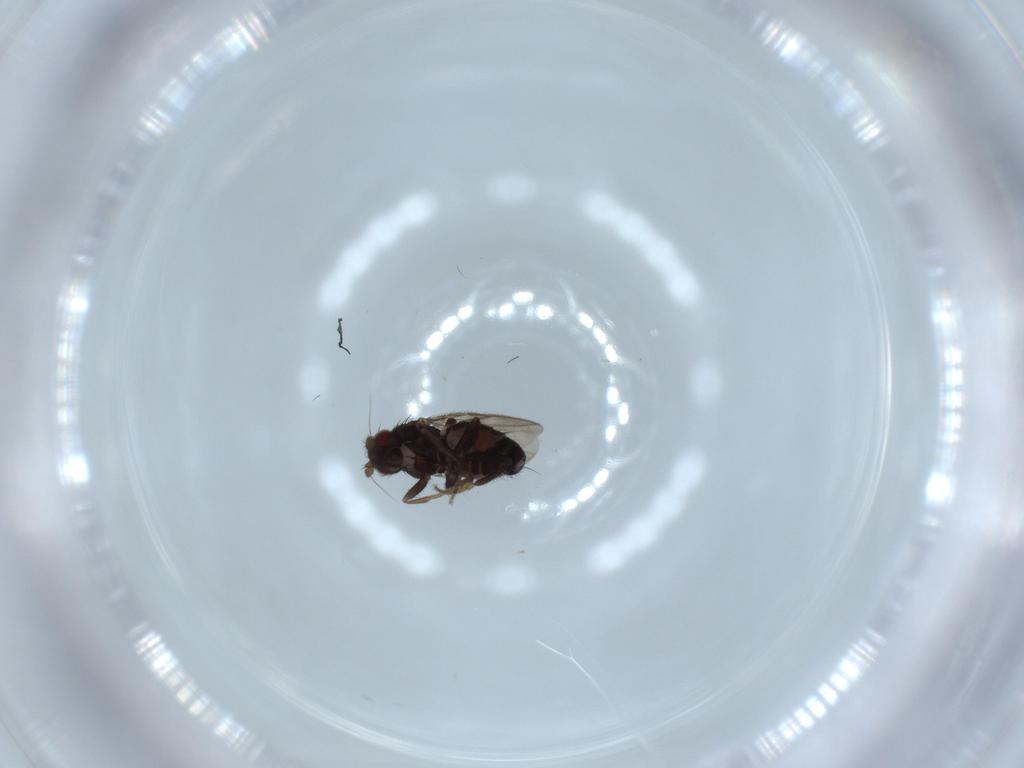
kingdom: Animalia
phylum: Arthropoda
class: Insecta
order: Diptera
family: Sphaeroceridae
